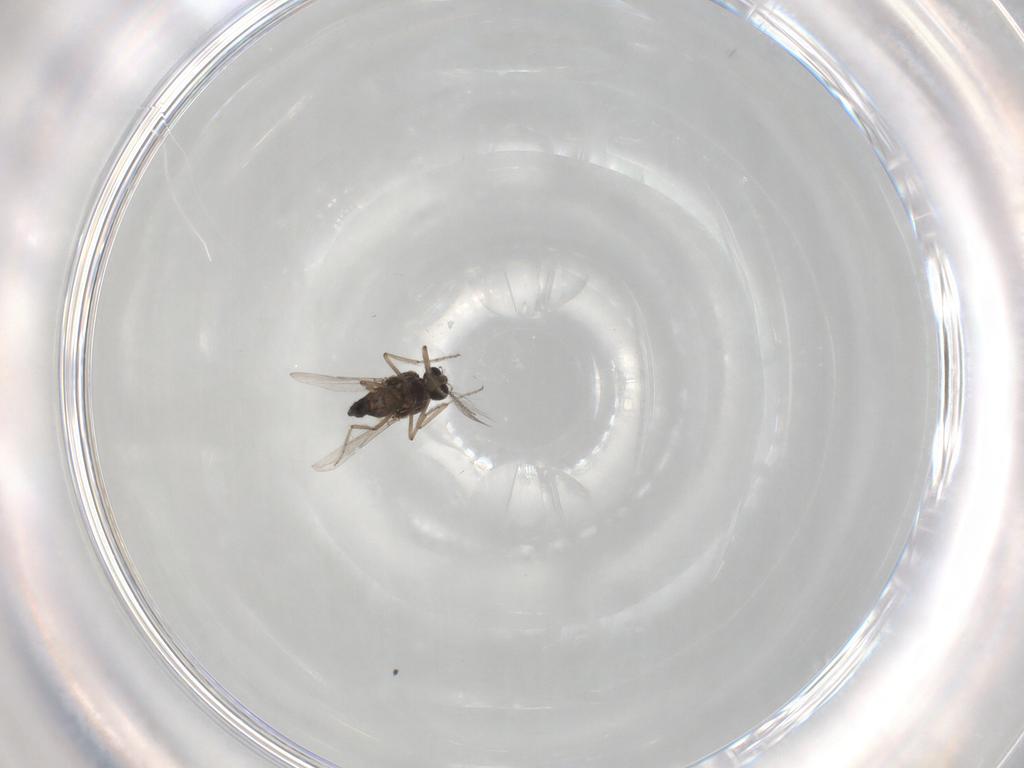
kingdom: Animalia
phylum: Arthropoda
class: Insecta
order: Diptera
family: Ceratopogonidae
